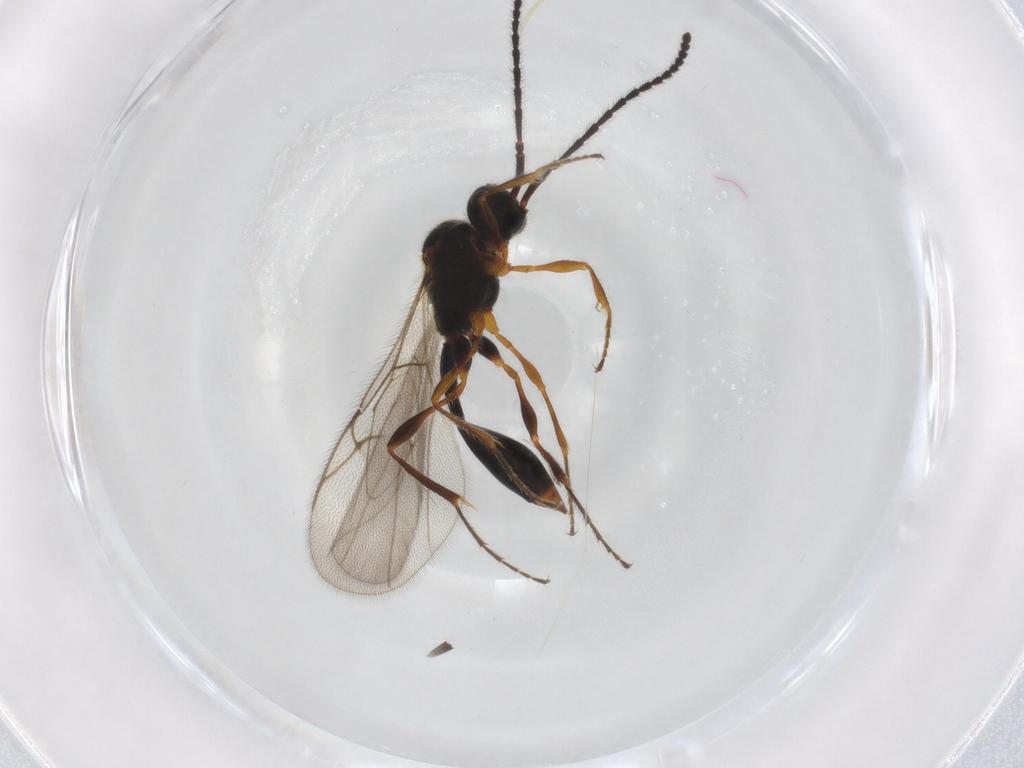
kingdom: Animalia
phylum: Arthropoda
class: Insecta
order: Hymenoptera
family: Diapriidae
